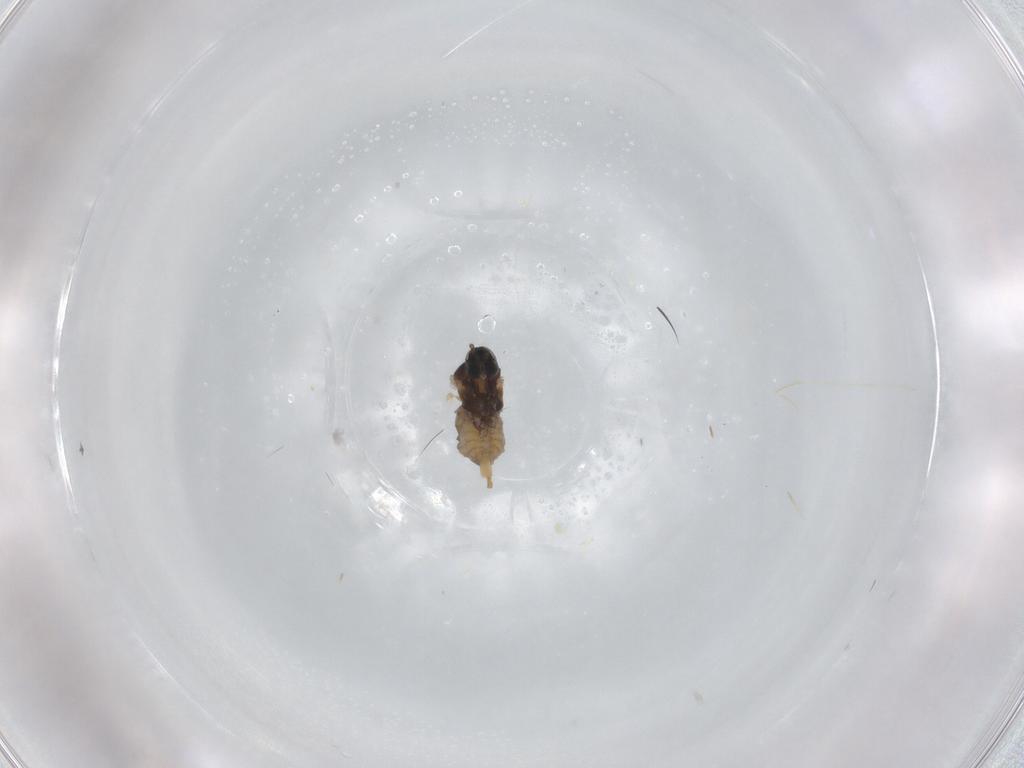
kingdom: Animalia
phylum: Arthropoda
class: Insecta
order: Diptera
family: Cecidomyiidae
